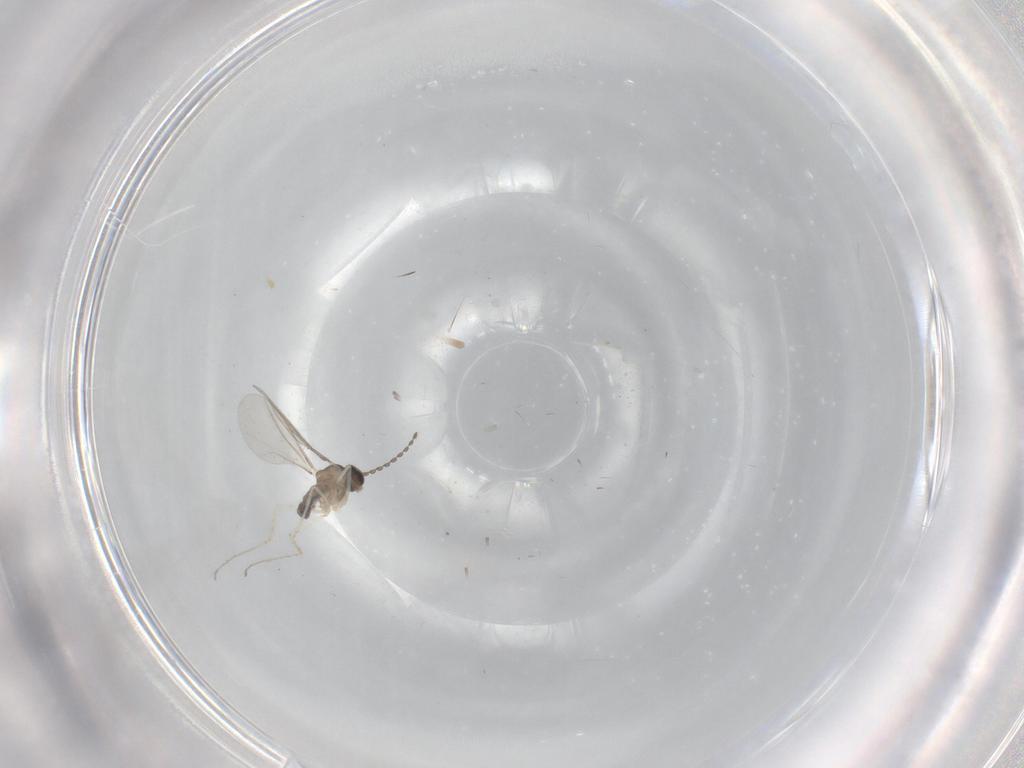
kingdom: Animalia
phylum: Arthropoda
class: Insecta
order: Diptera
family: Cecidomyiidae
